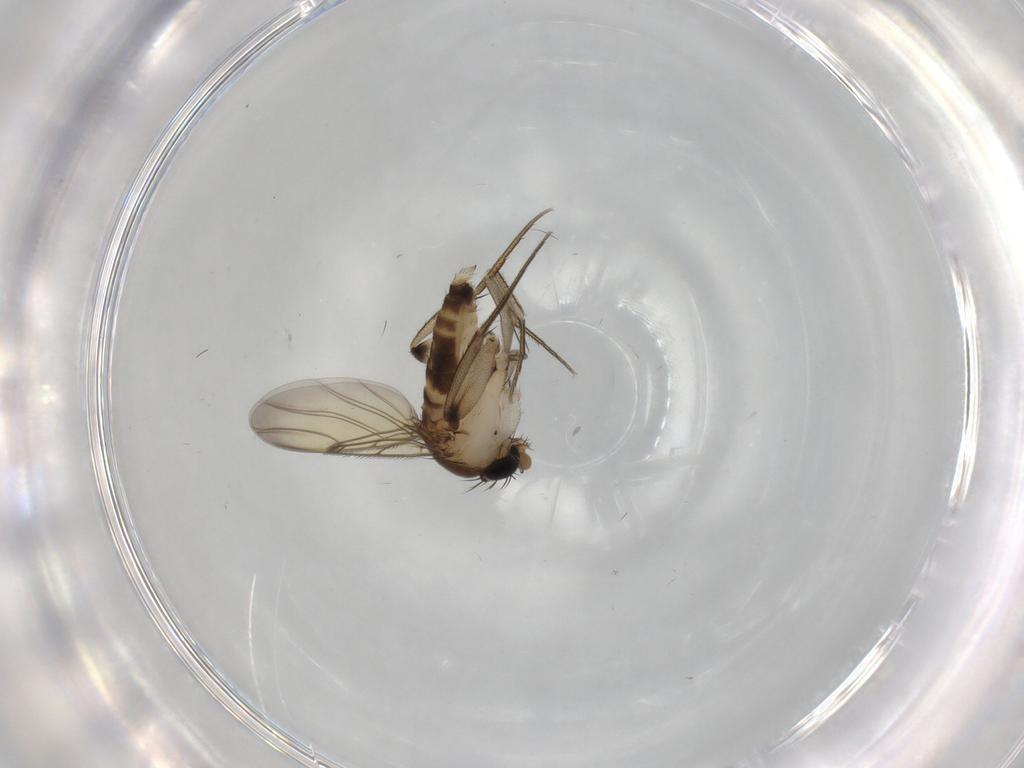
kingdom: Animalia
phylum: Arthropoda
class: Insecta
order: Diptera
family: Phoridae
